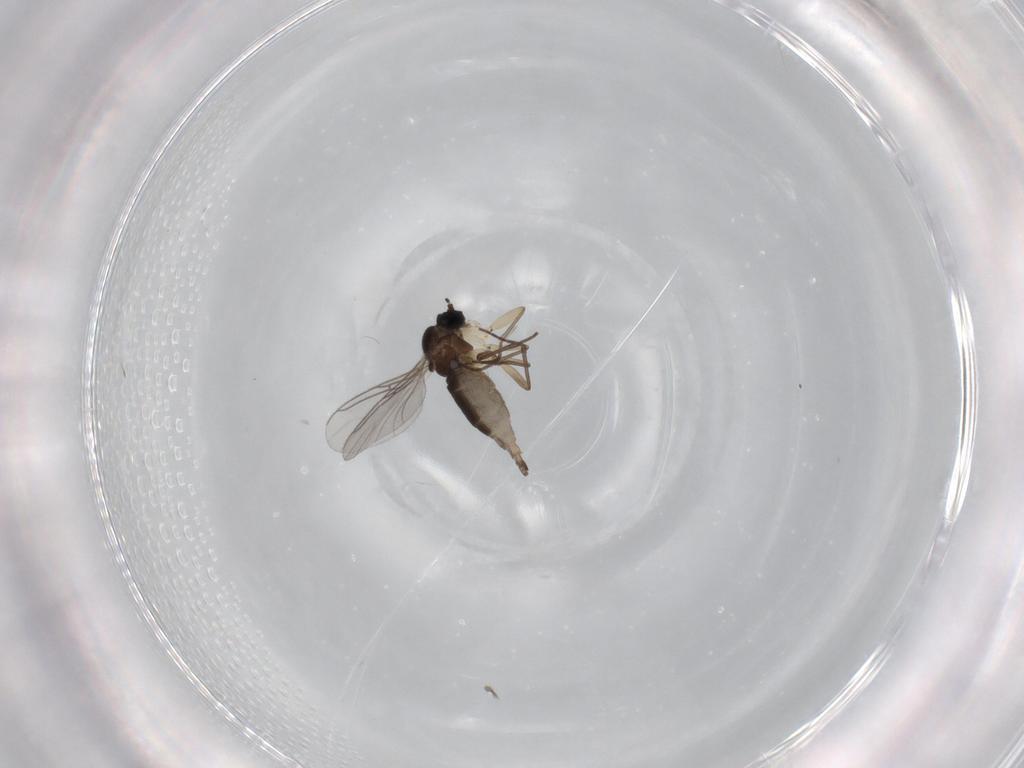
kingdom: Animalia
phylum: Arthropoda
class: Insecta
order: Diptera
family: Sciaridae
